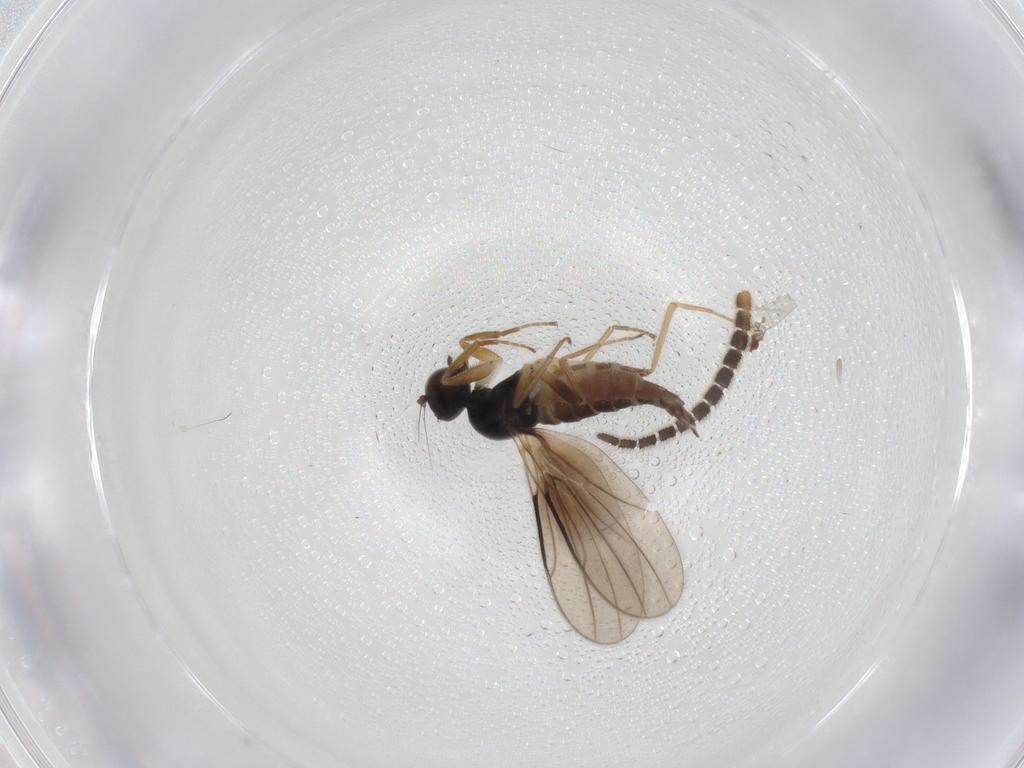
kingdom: Animalia
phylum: Arthropoda
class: Insecta
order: Diptera
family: Hybotidae
